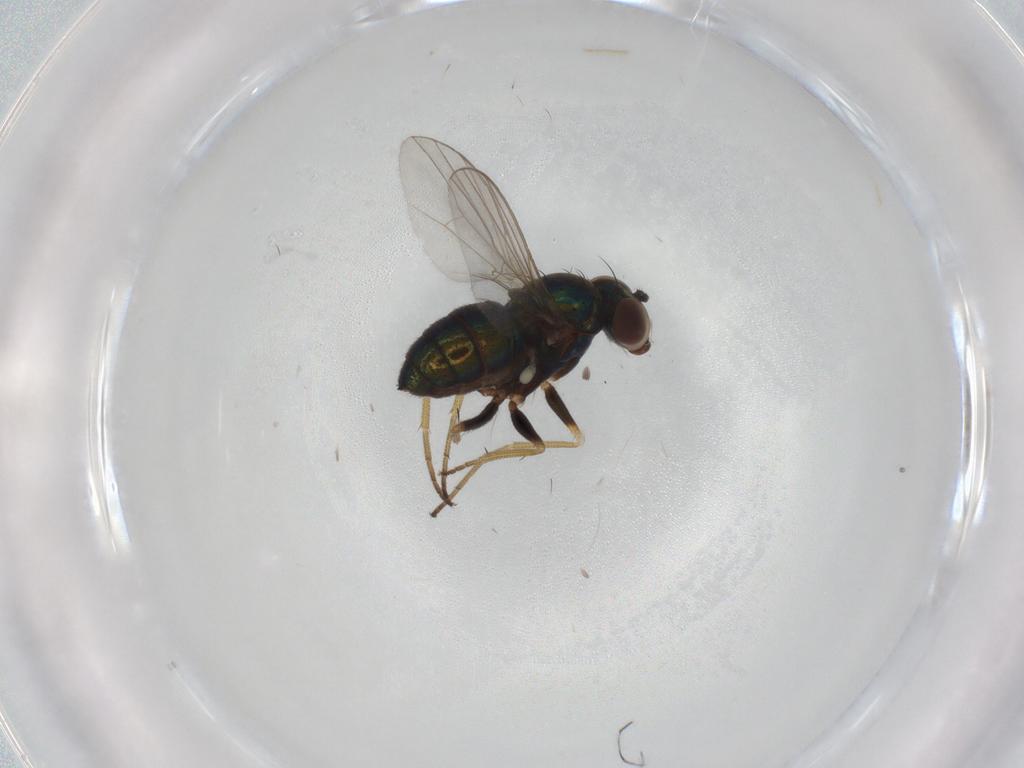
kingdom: Animalia
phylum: Arthropoda
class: Insecta
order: Diptera
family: Dolichopodidae
